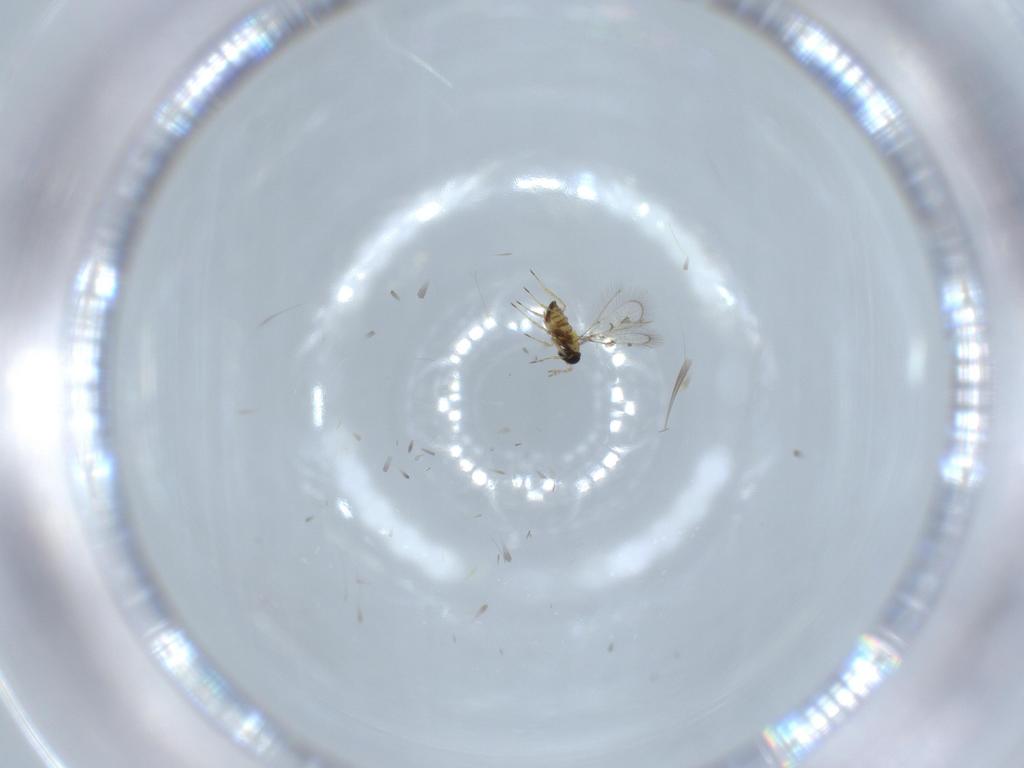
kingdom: Animalia
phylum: Arthropoda
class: Insecta
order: Hymenoptera
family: Trichogrammatidae
